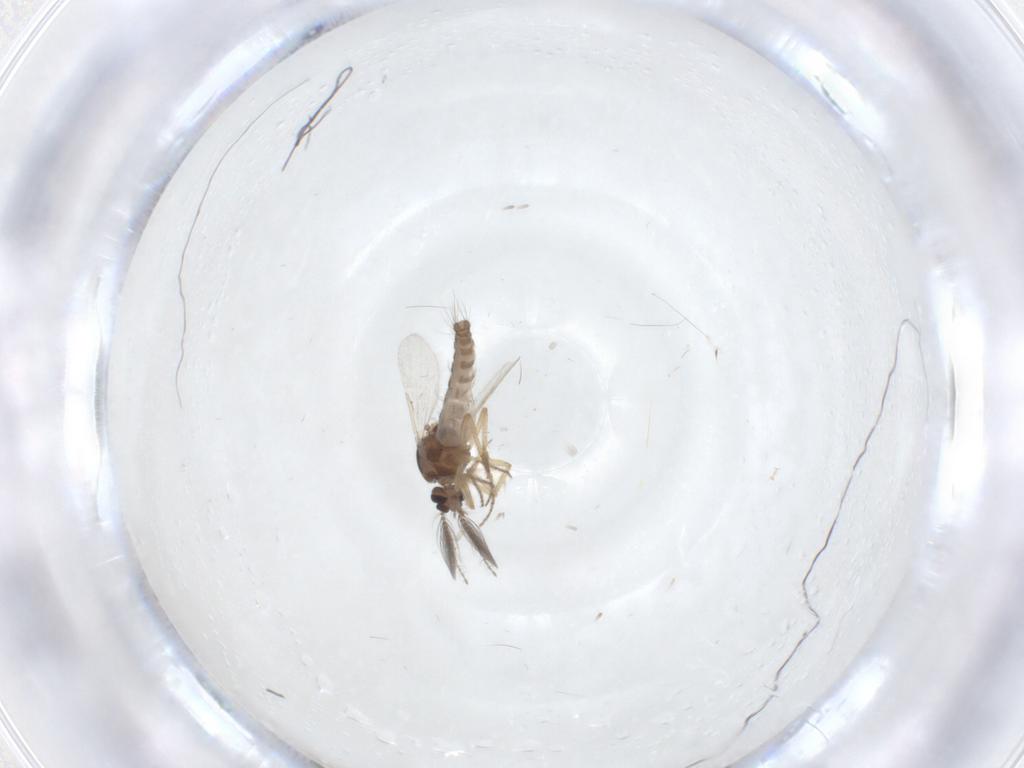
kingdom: Animalia
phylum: Arthropoda
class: Insecta
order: Diptera
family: Ceratopogonidae
